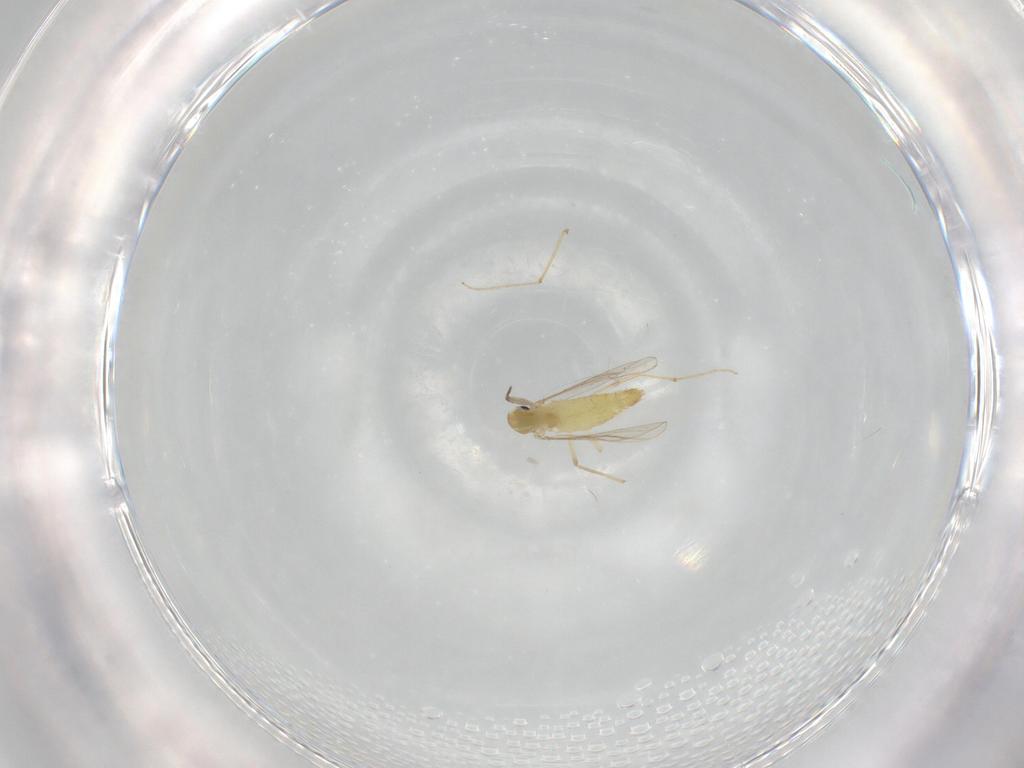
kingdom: Animalia
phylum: Arthropoda
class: Insecta
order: Diptera
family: Chironomidae
